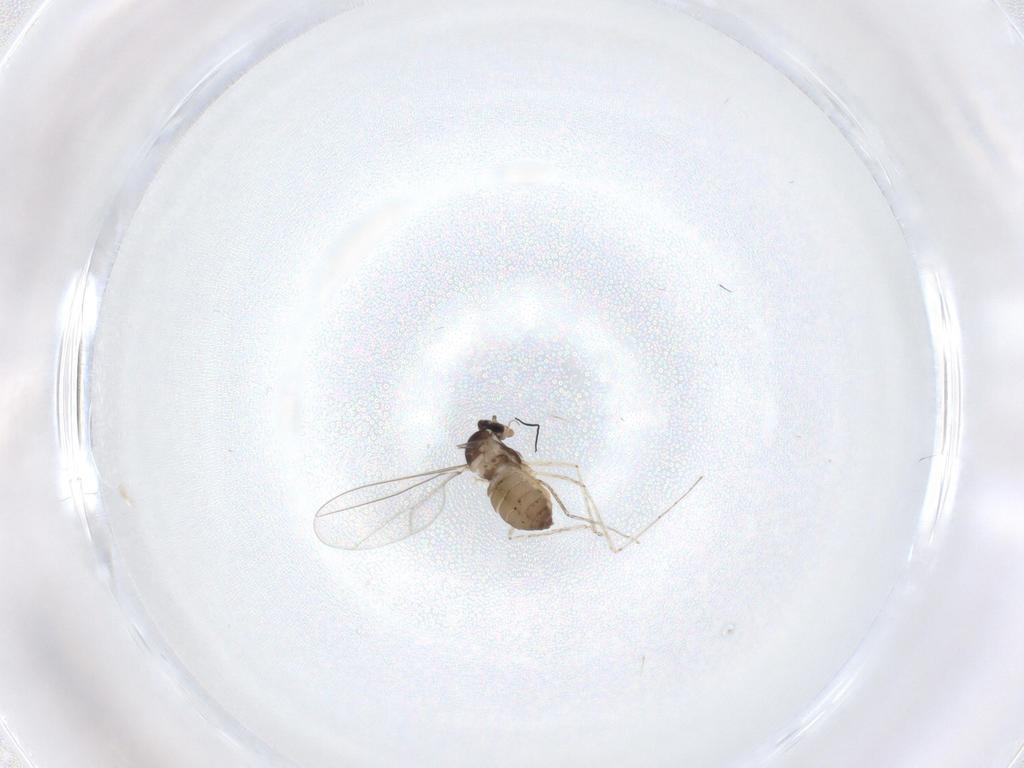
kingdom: Animalia
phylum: Arthropoda
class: Insecta
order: Diptera
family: Cecidomyiidae
